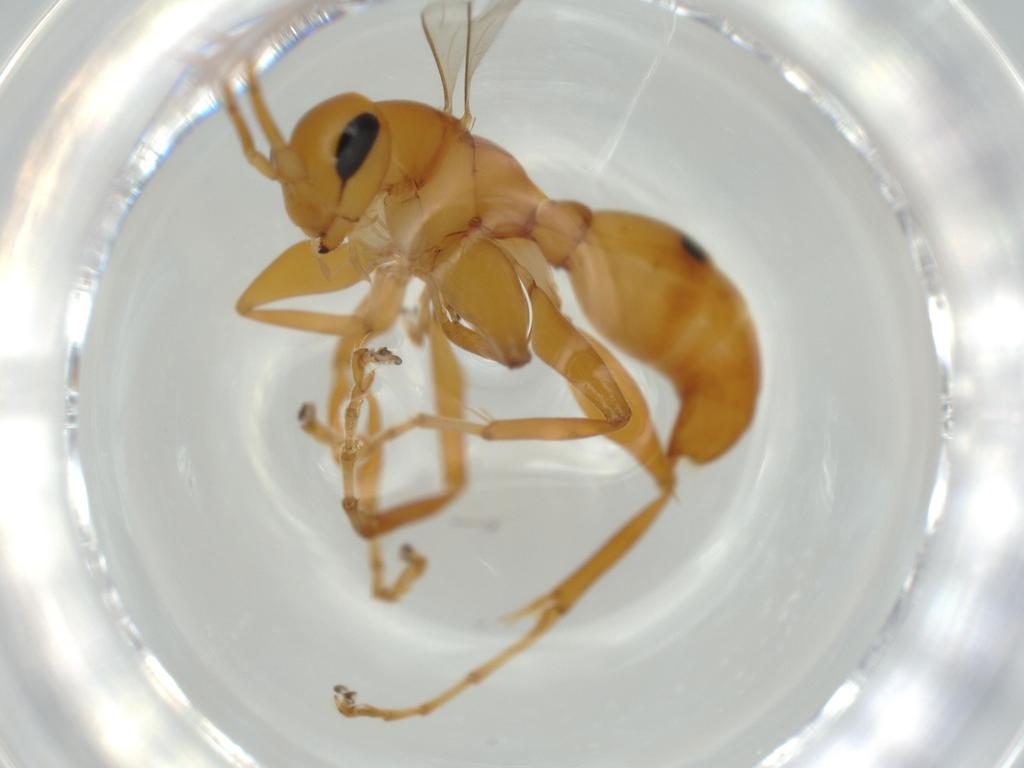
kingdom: Animalia
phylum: Arthropoda
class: Insecta
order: Hymenoptera
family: Rhopalosomatidae
